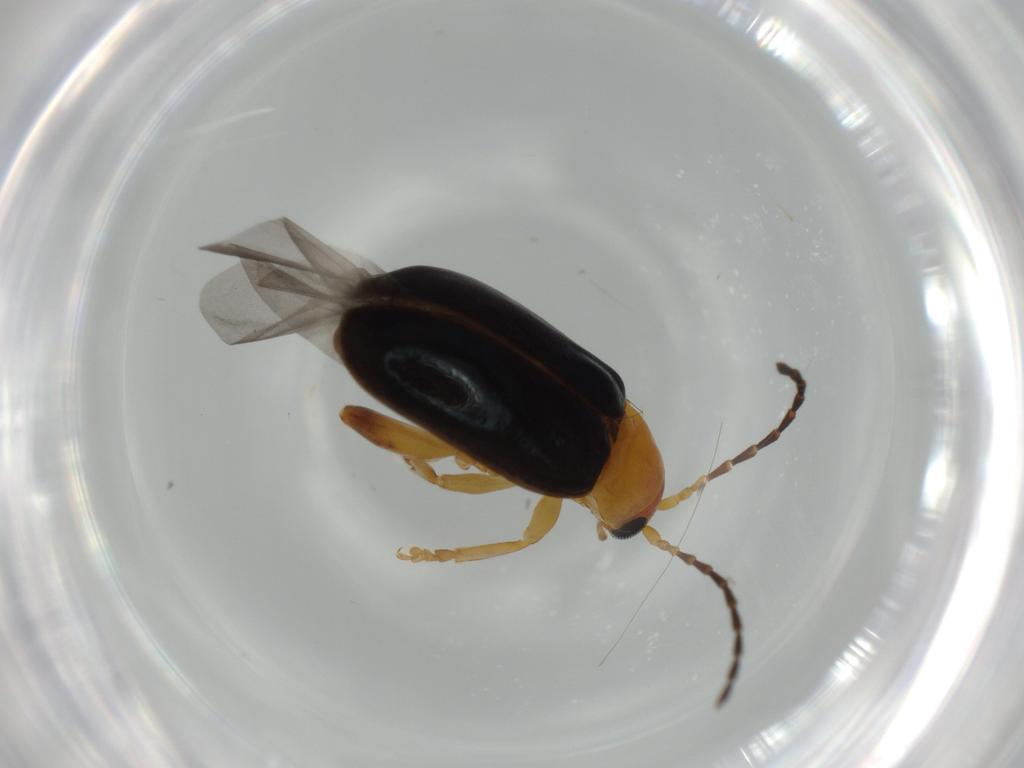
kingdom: Animalia
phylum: Arthropoda
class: Insecta
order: Coleoptera
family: Chrysomelidae
